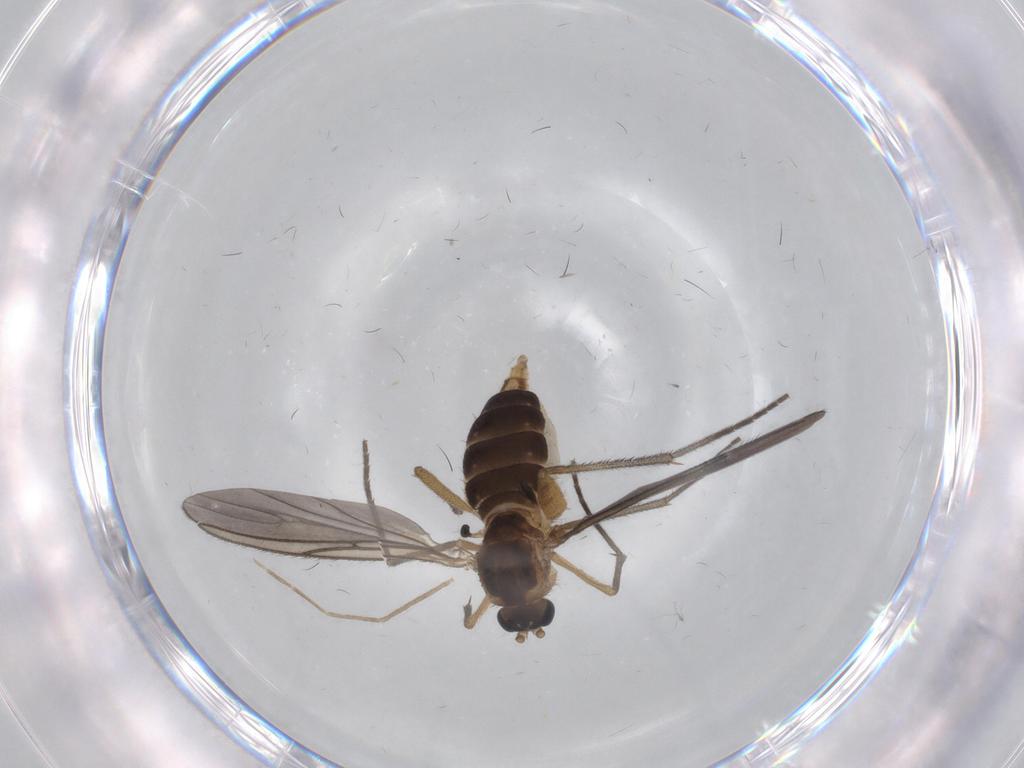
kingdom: Animalia
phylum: Arthropoda
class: Insecta
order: Diptera
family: Sciaridae
